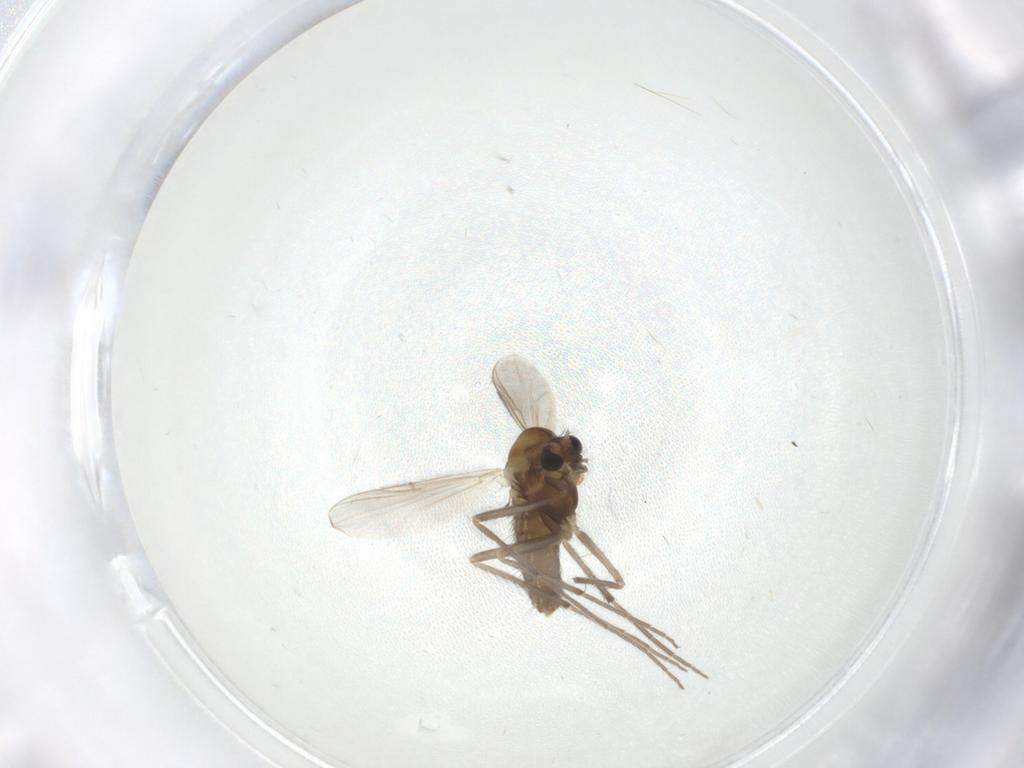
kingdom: Animalia
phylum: Arthropoda
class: Insecta
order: Diptera
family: Chironomidae
